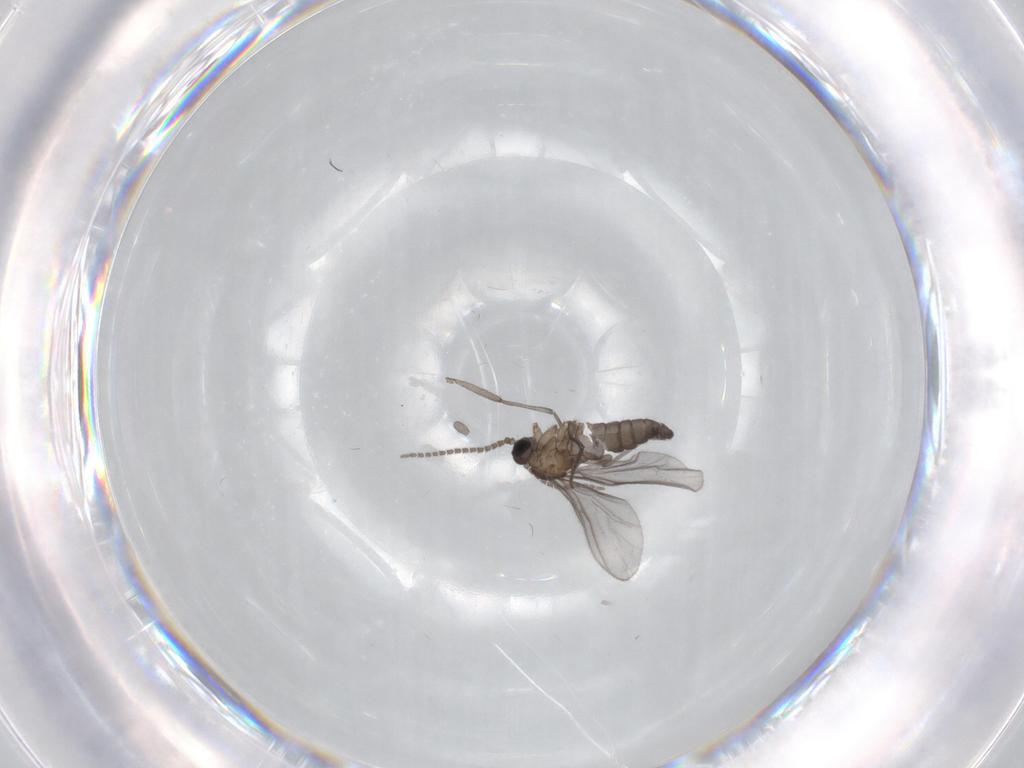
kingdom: Animalia
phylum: Arthropoda
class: Insecta
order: Diptera
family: Sciaridae
